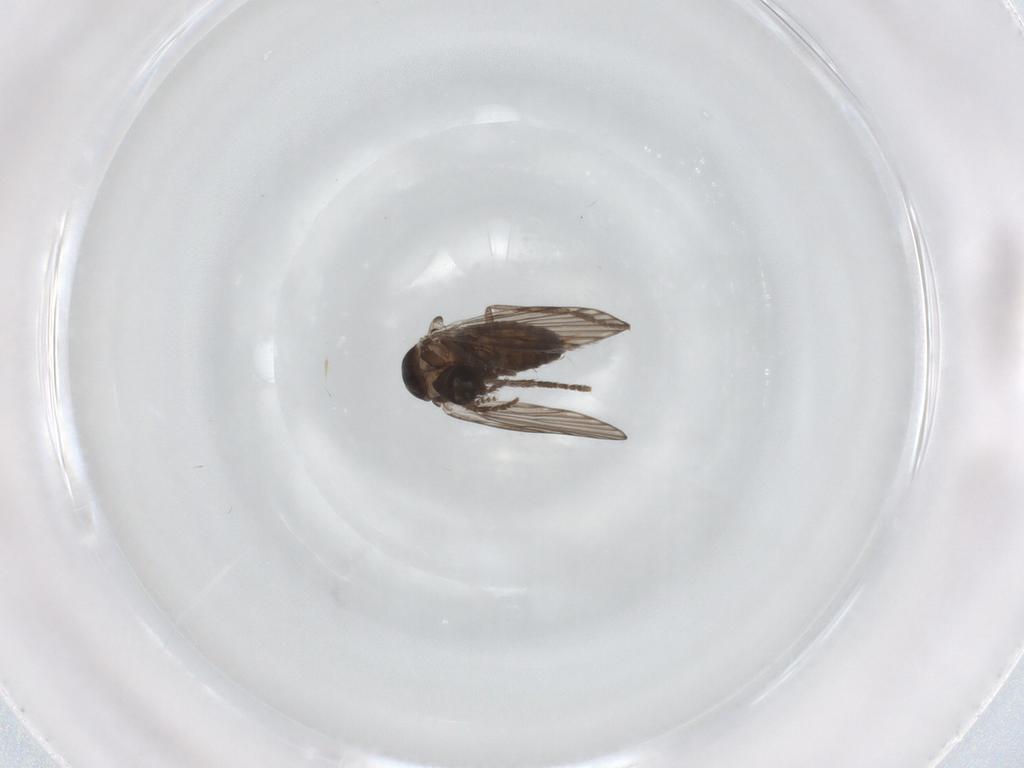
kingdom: Animalia
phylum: Arthropoda
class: Insecta
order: Diptera
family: Psychodidae
